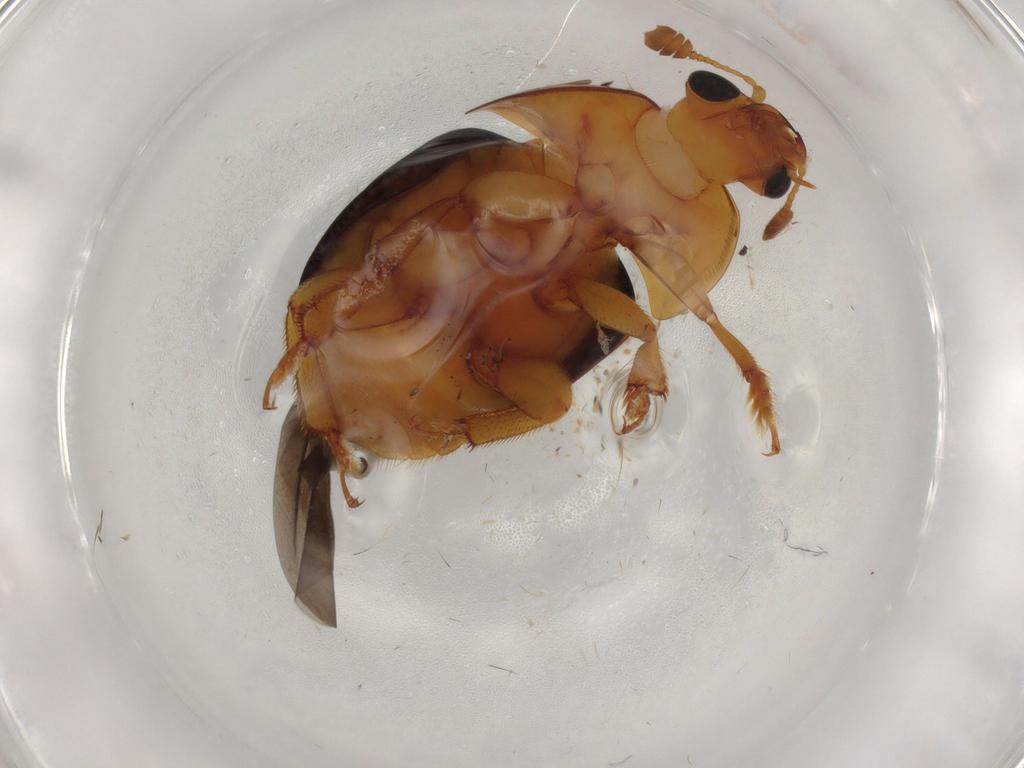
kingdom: Animalia
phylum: Arthropoda
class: Insecta
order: Coleoptera
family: Nitidulidae
